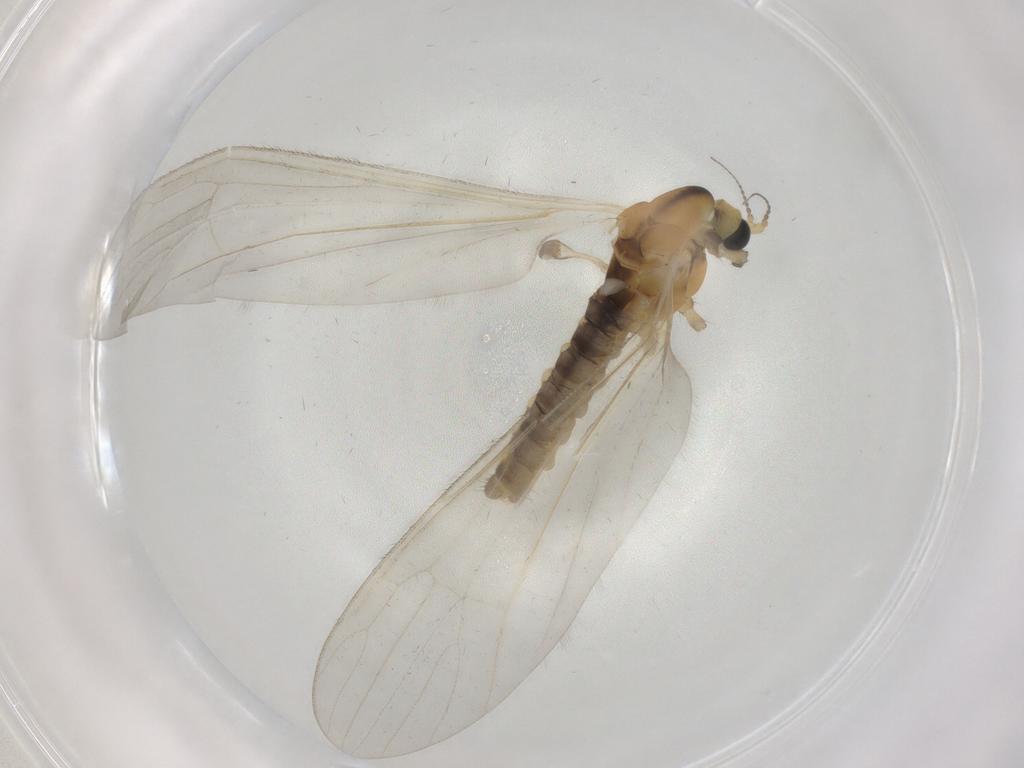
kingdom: Animalia
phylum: Arthropoda
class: Insecta
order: Diptera
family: Limoniidae
